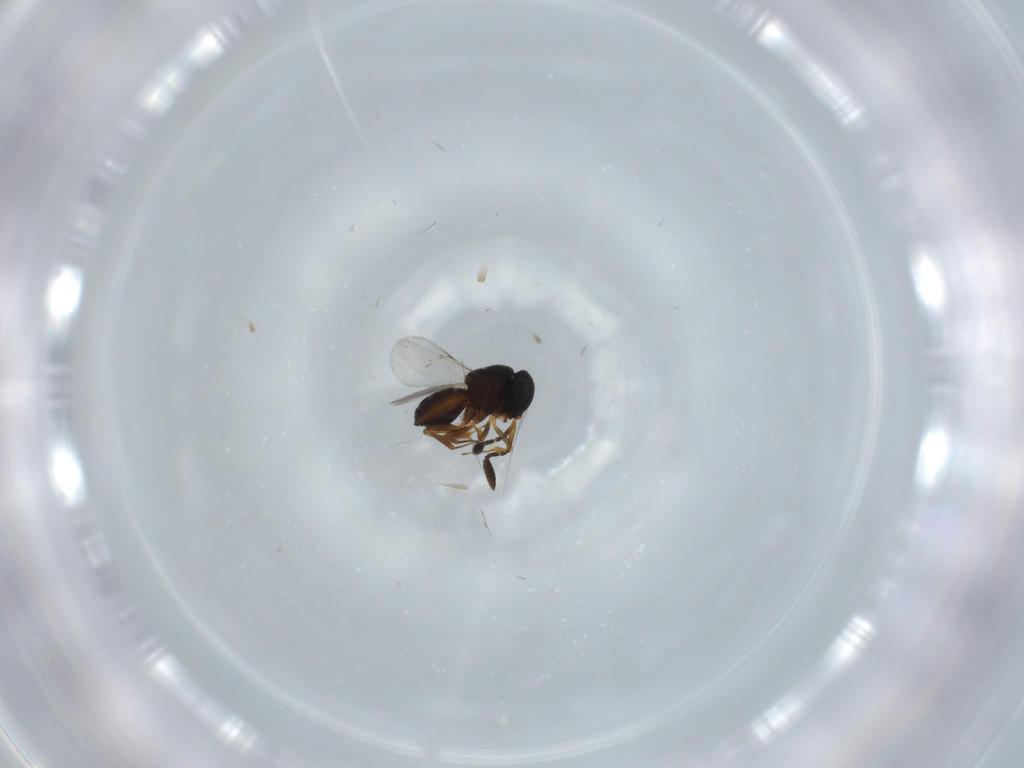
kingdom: Animalia
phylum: Arthropoda
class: Insecta
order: Coleoptera
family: Curculionidae
